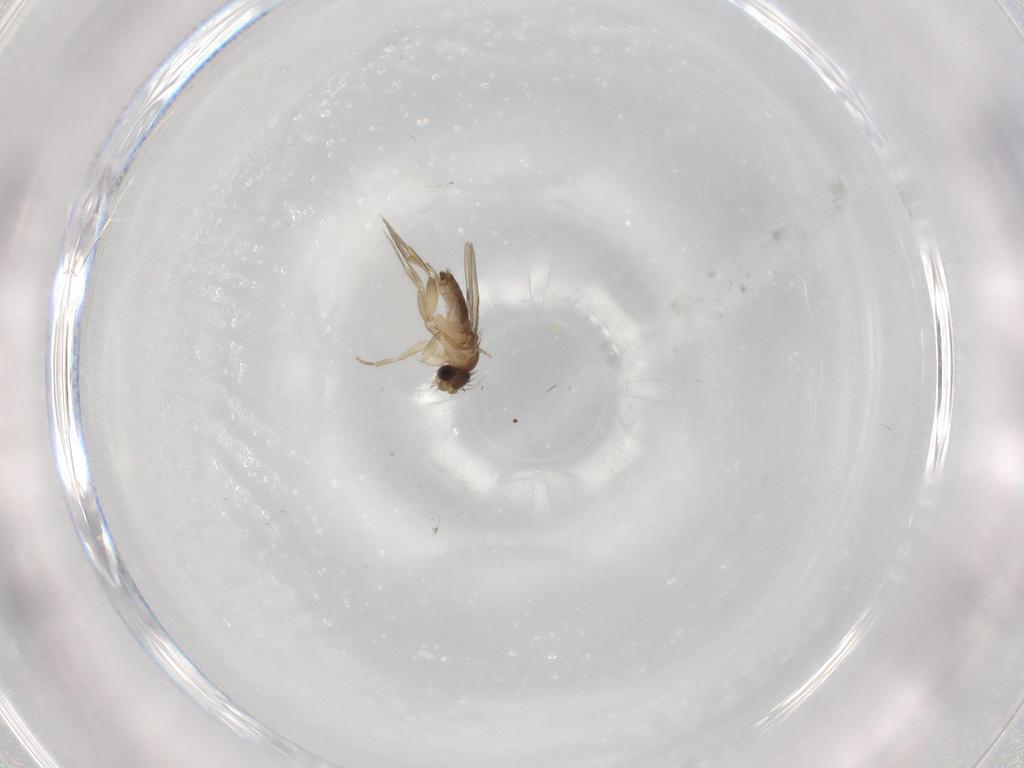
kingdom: Animalia
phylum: Arthropoda
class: Insecta
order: Diptera
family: Phoridae
